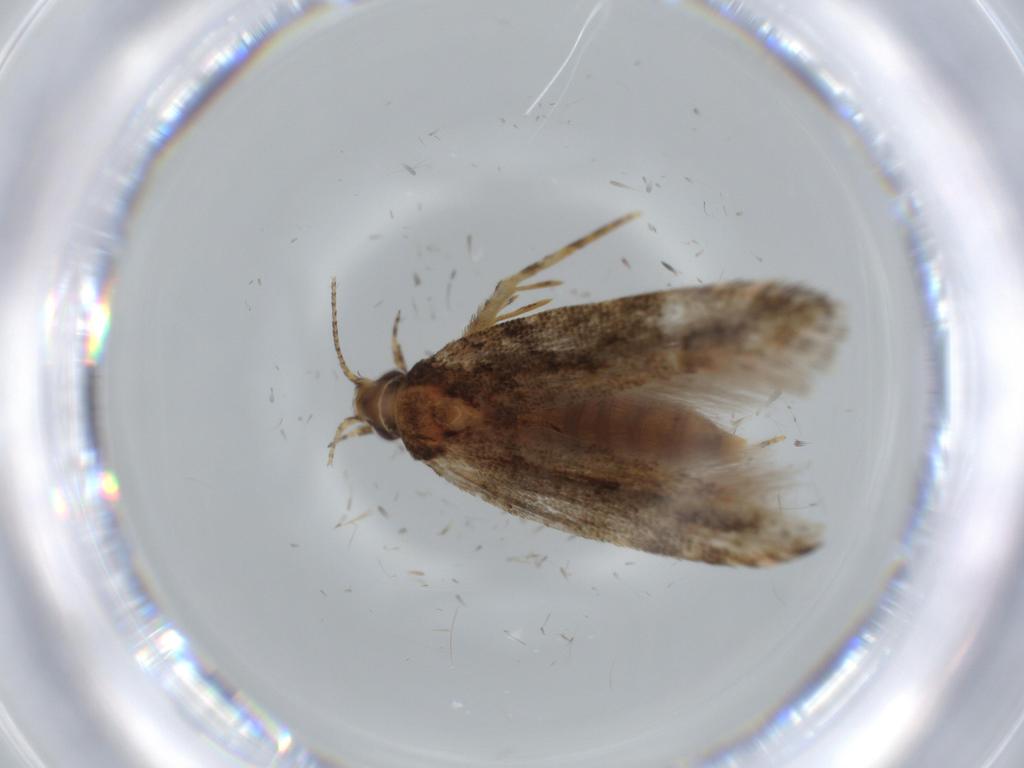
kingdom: Animalia
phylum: Arthropoda
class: Insecta
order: Lepidoptera
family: Gelechiidae
